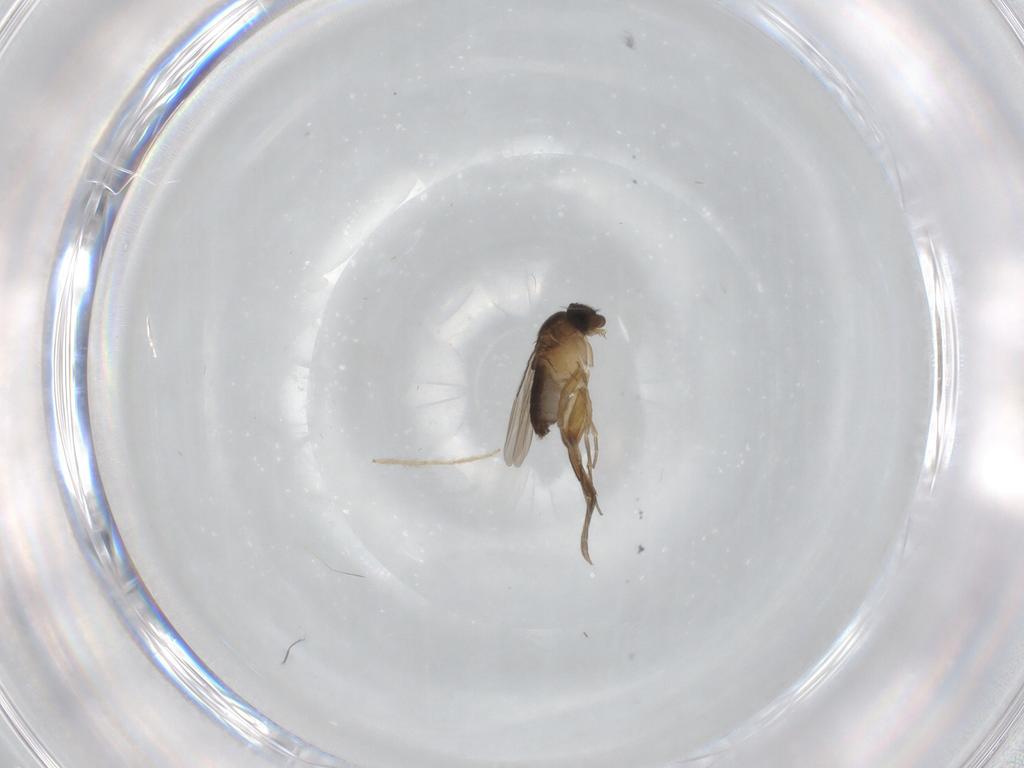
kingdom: Animalia
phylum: Arthropoda
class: Insecta
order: Diptera
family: Phoridae
